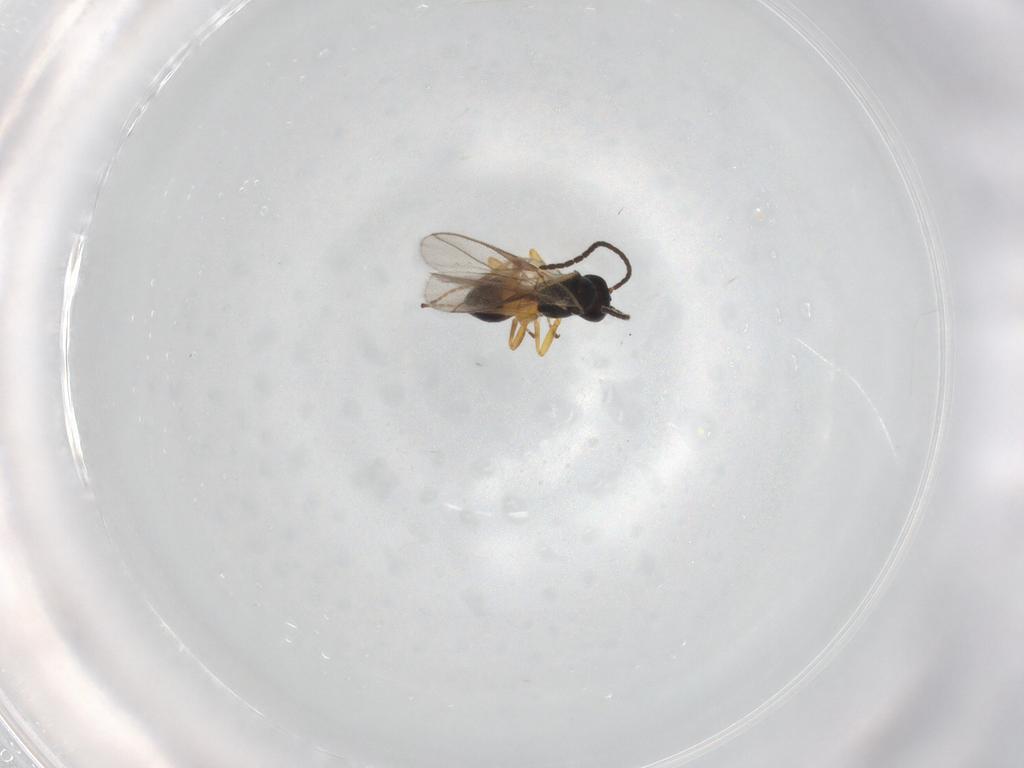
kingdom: Animalia
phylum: Arthropoda
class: Insecta
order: Hymenoptera
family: Braconidae
